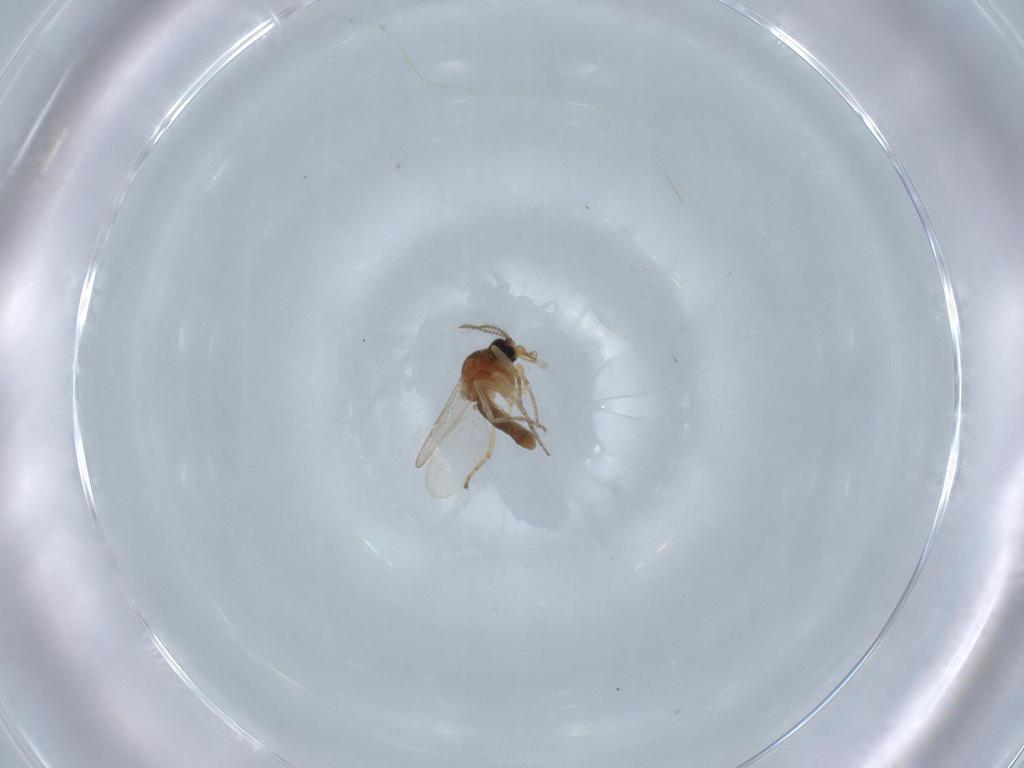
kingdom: Animalia
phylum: Arthropoda
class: Insecta
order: Diptera
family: Ceratopogonidae
